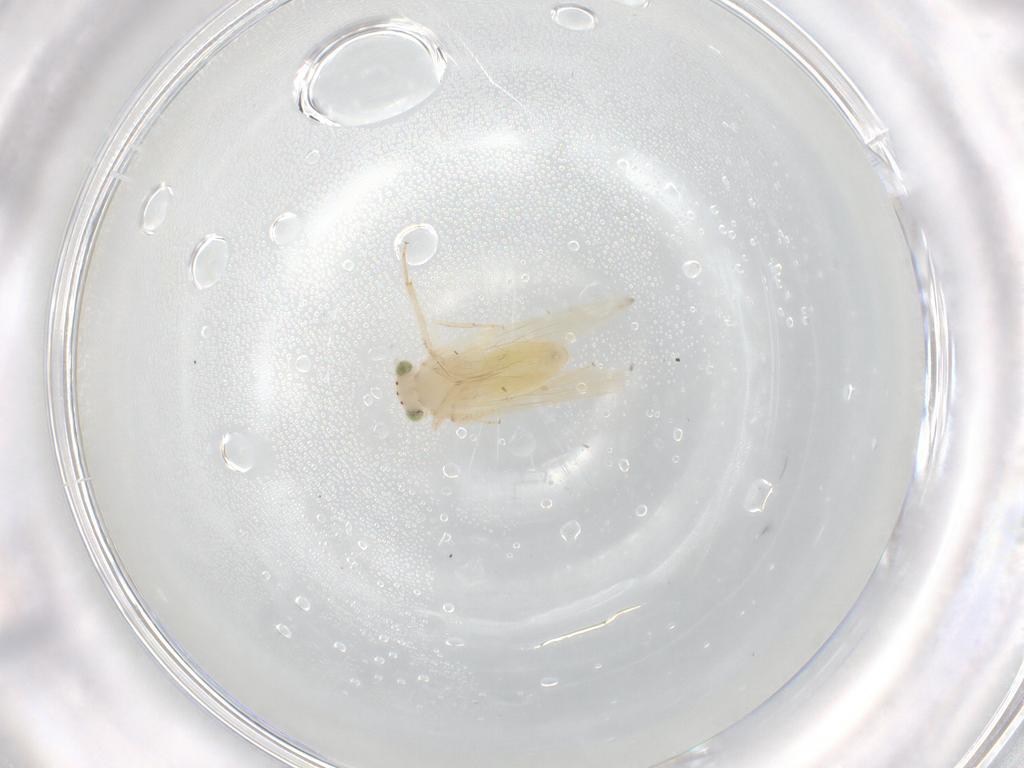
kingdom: Animalia
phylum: Arthropoda
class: Insecta
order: Psocodea
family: Lepidopsocidae
